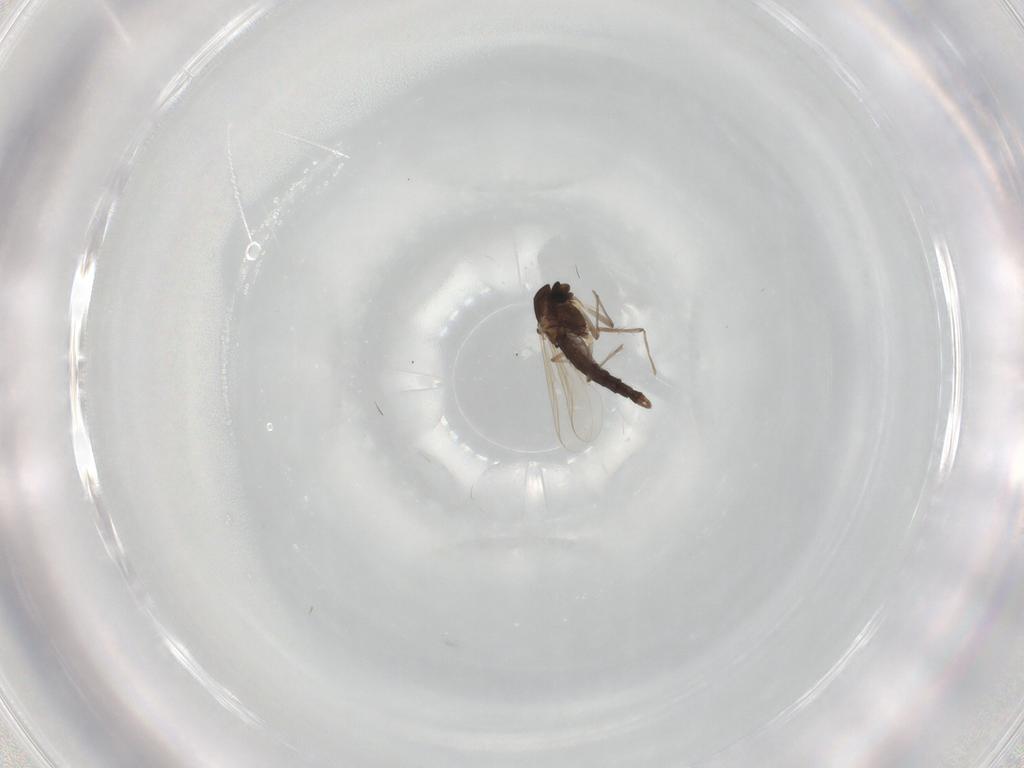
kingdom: Animalia
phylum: Arthropoda
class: Insecta
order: Diptera
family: Chironomidae
